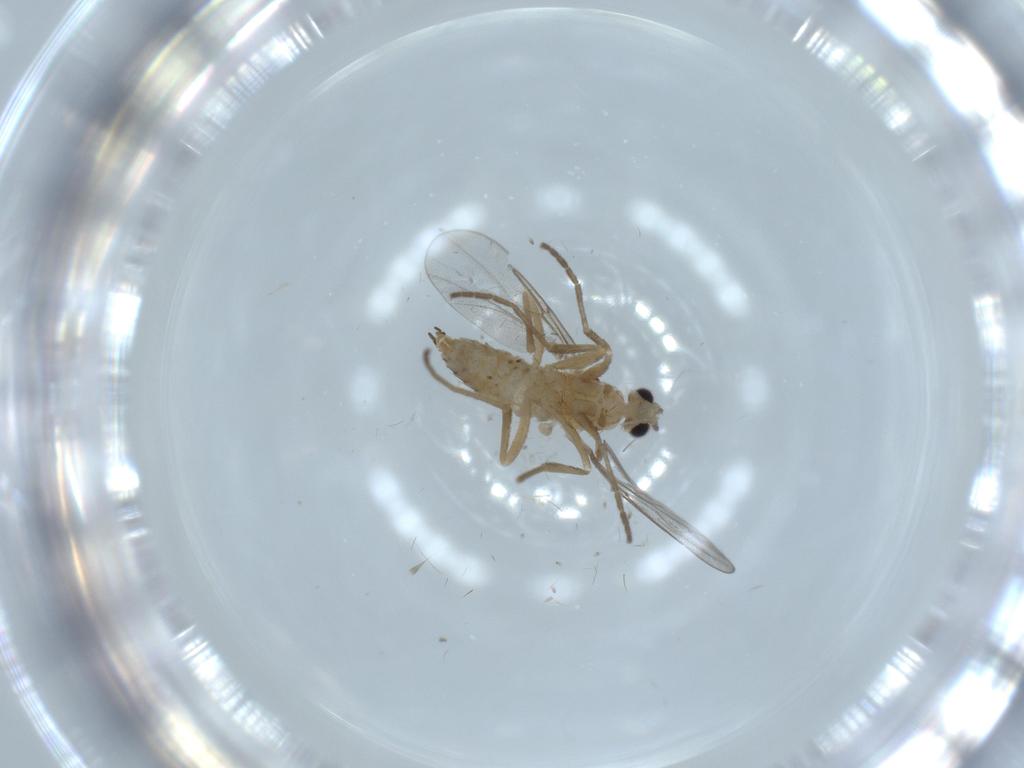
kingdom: Animalia
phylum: Arthropoda
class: Insecta
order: Diptera
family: Cecidomyiidae
